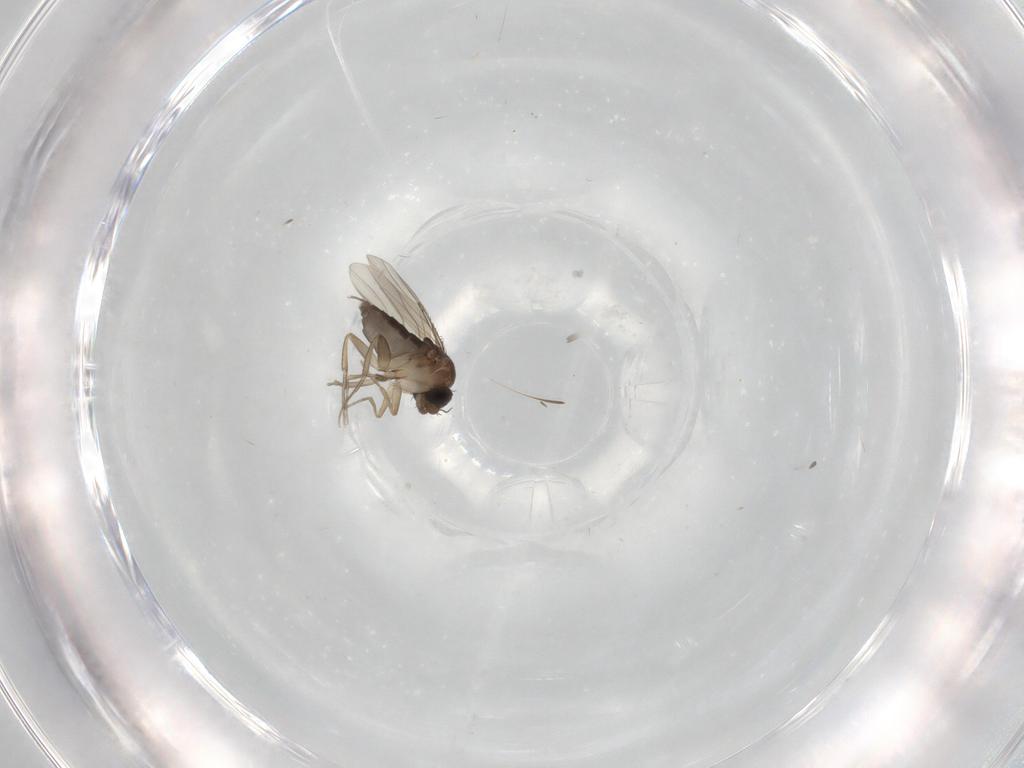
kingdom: Animalia
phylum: Arthropoda
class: Insecta
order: Diptera
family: Phoridae
